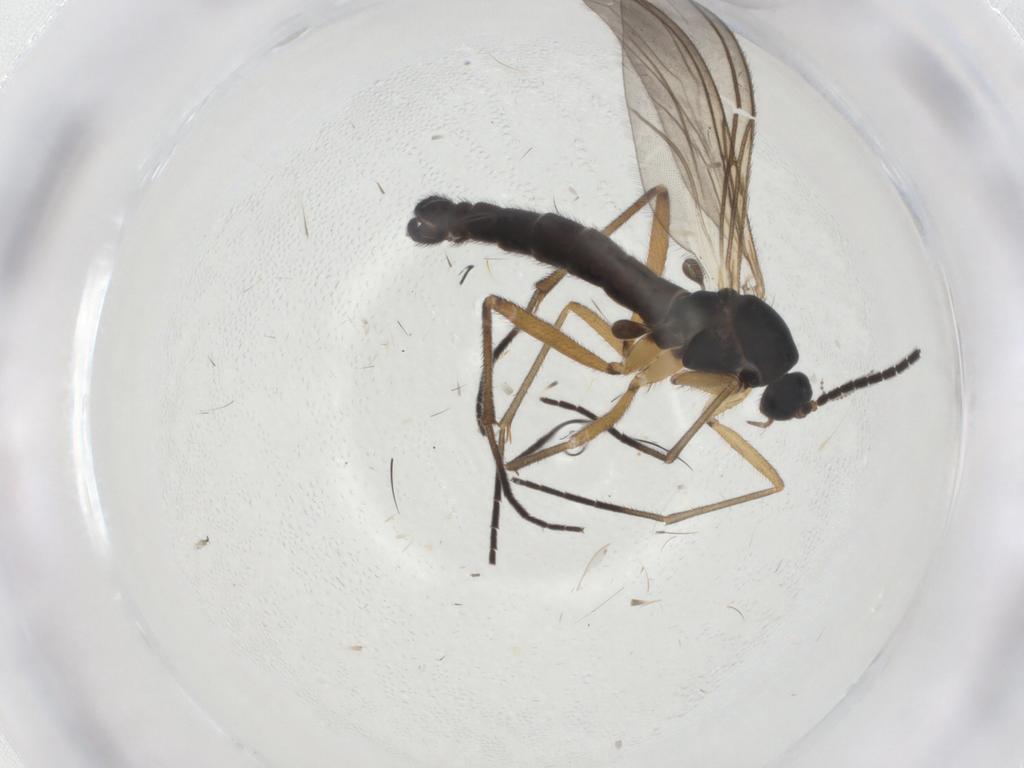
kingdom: Animalia
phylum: Arthropoda
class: Insecta
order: Diptera
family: Sciaridae
